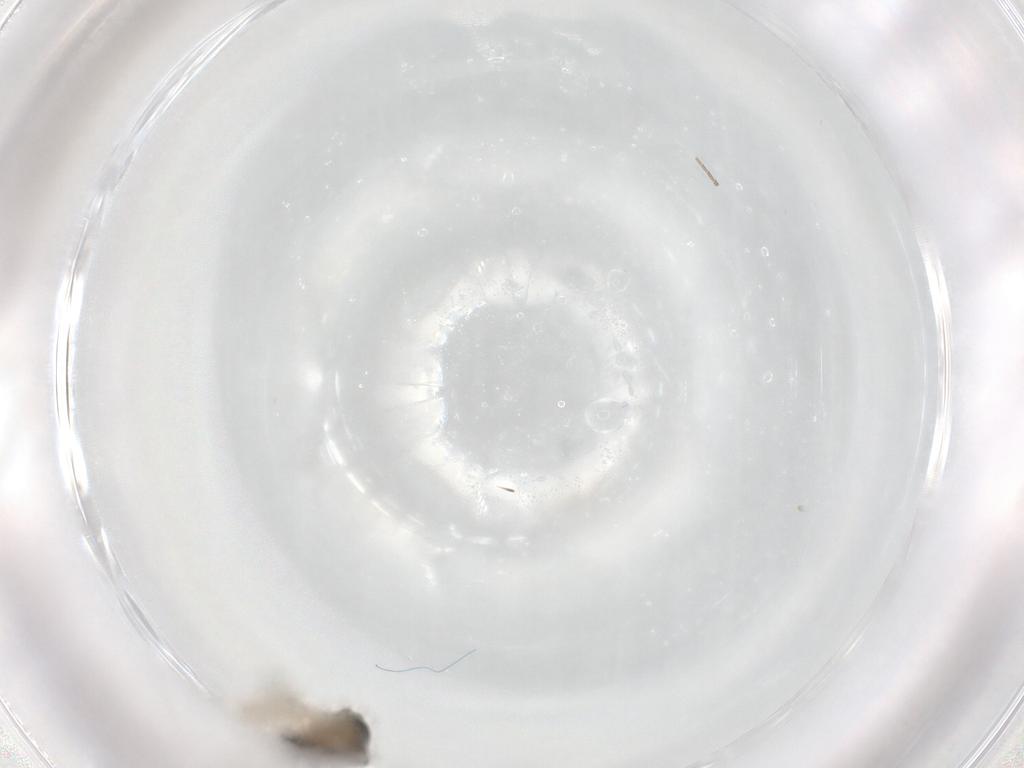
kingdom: Animalia
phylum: Arthropoda
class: Insecta
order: Diptera
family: Phoridae
